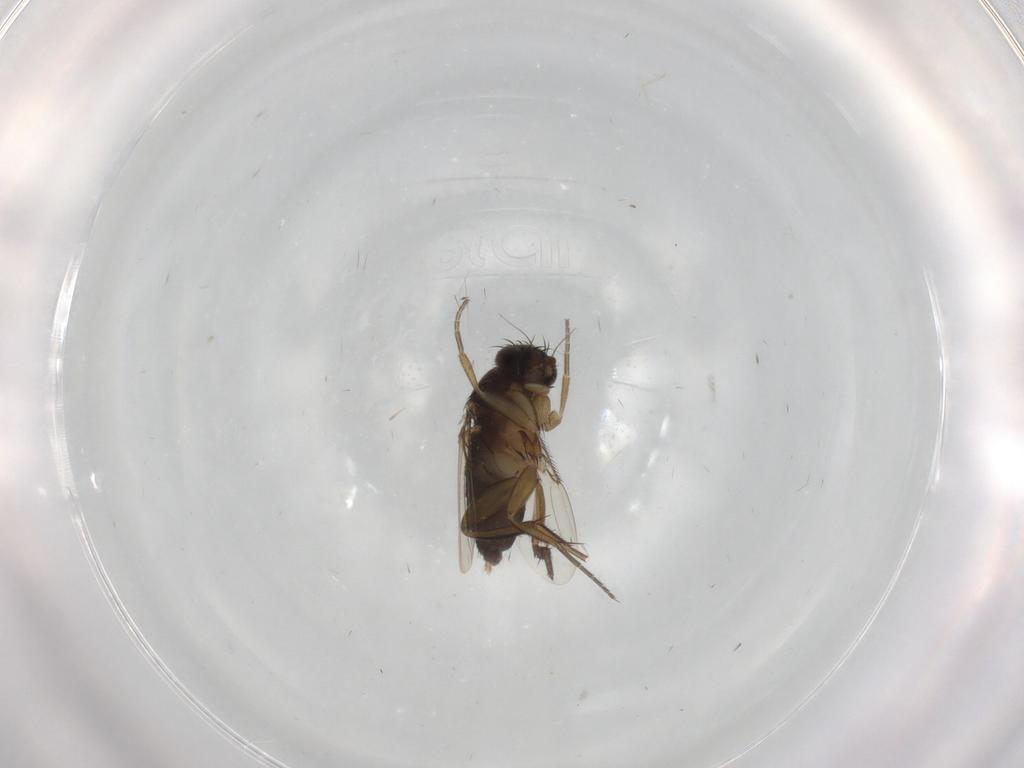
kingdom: Animalia
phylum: Arthropoda
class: Insecta
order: Diptera
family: Phoridae
